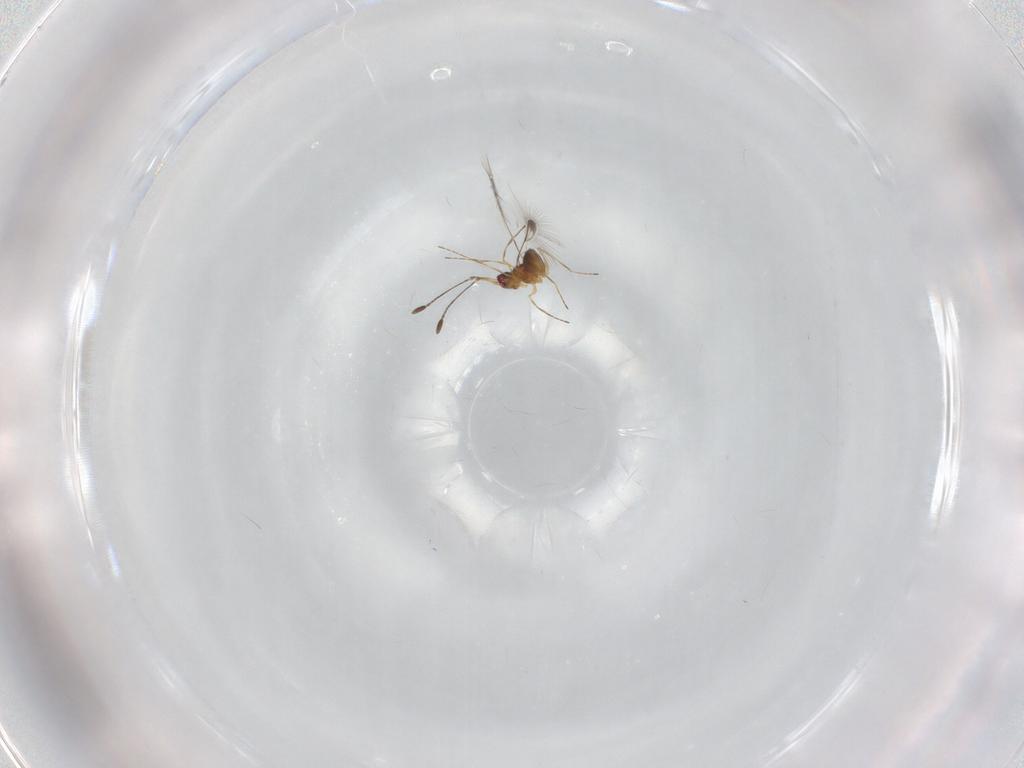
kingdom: Animalia
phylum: Arthropoda
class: Insecta
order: Hymenoptera
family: Mymaridae
